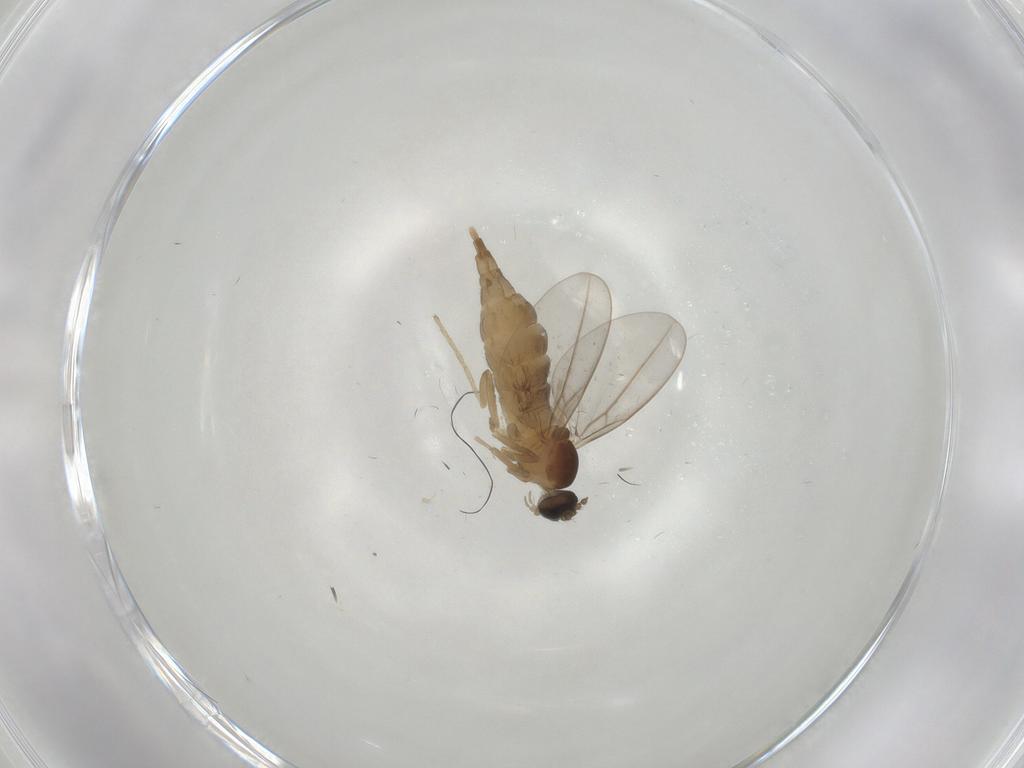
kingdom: Animalia
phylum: Arthropoda
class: Insecta
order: Diptera
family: Cecidomyiidae
